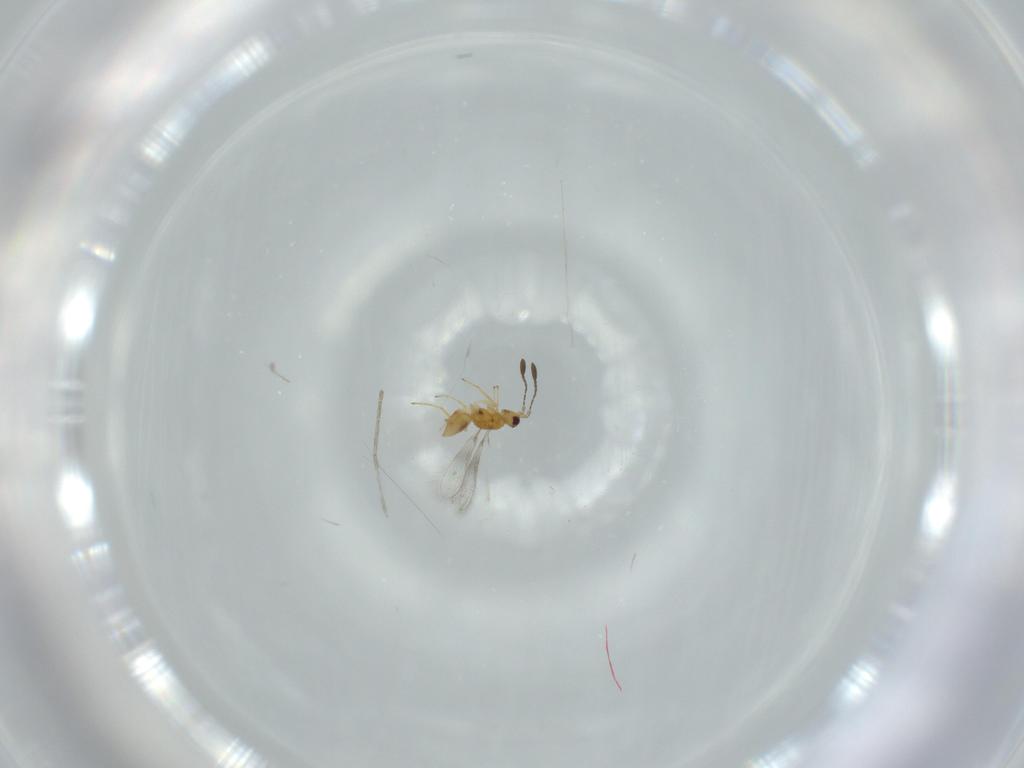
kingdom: Animalia
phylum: Arthropoda
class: Insecta
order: Hymenoptera
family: Mymaridae
